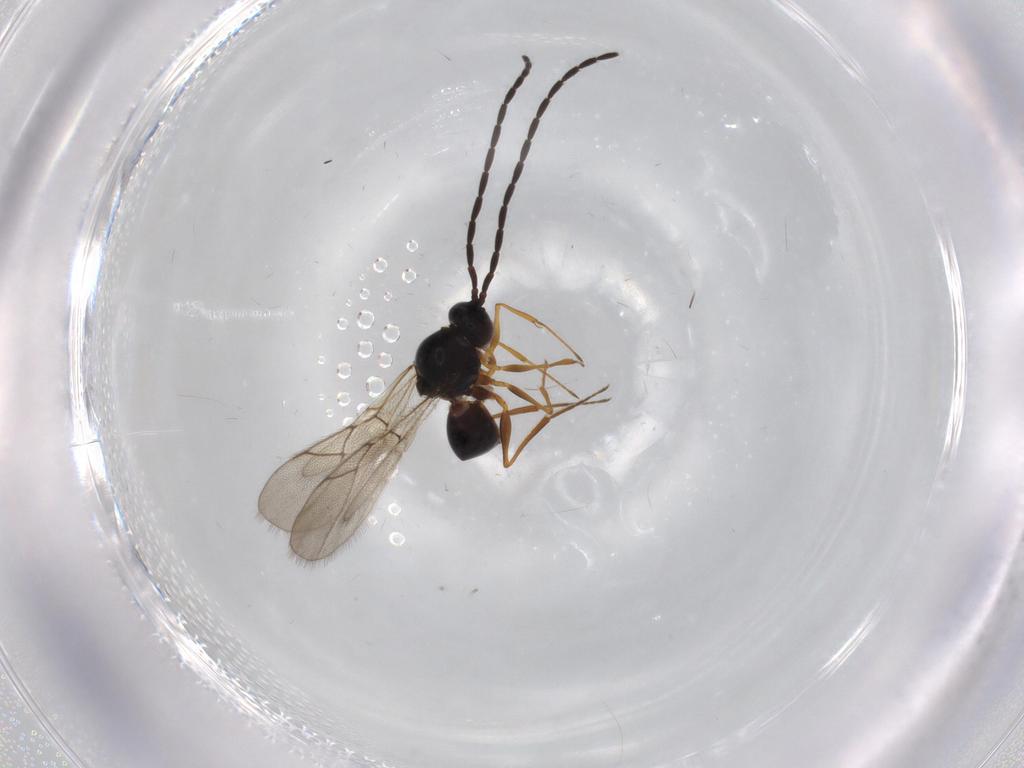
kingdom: Animalia
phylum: Arthropoda
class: Insecta
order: Hymenoptera
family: Figitidae
